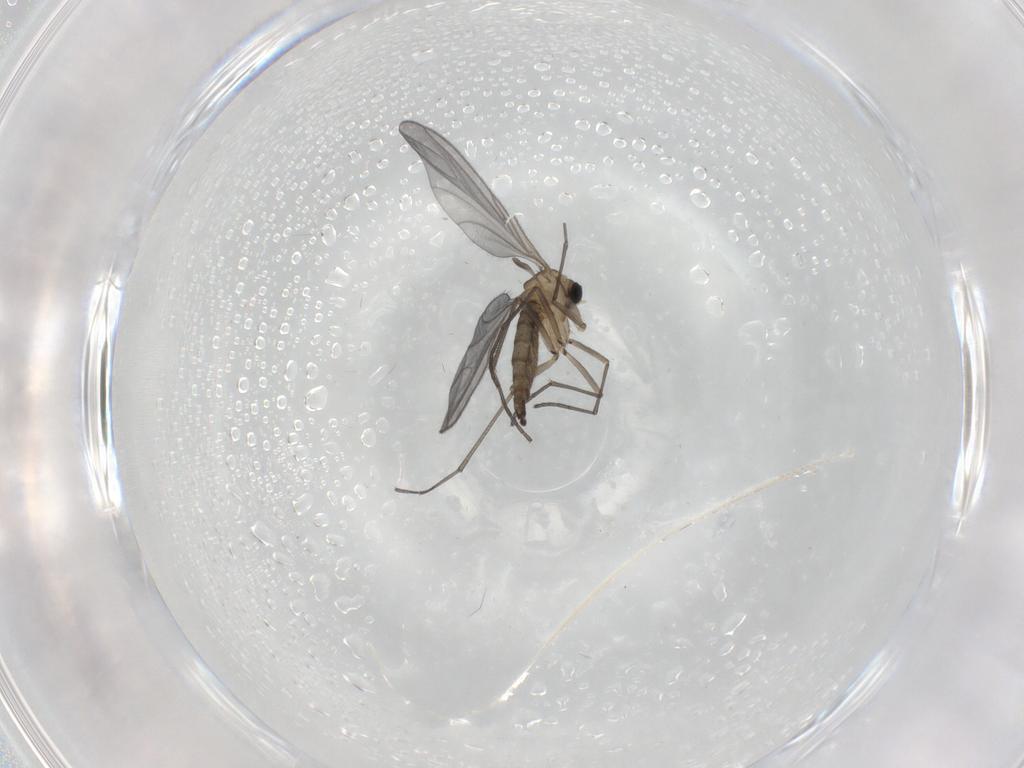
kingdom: Animalia
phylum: Arthropoda
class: Insecta
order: Diptera
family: Sciaridae
